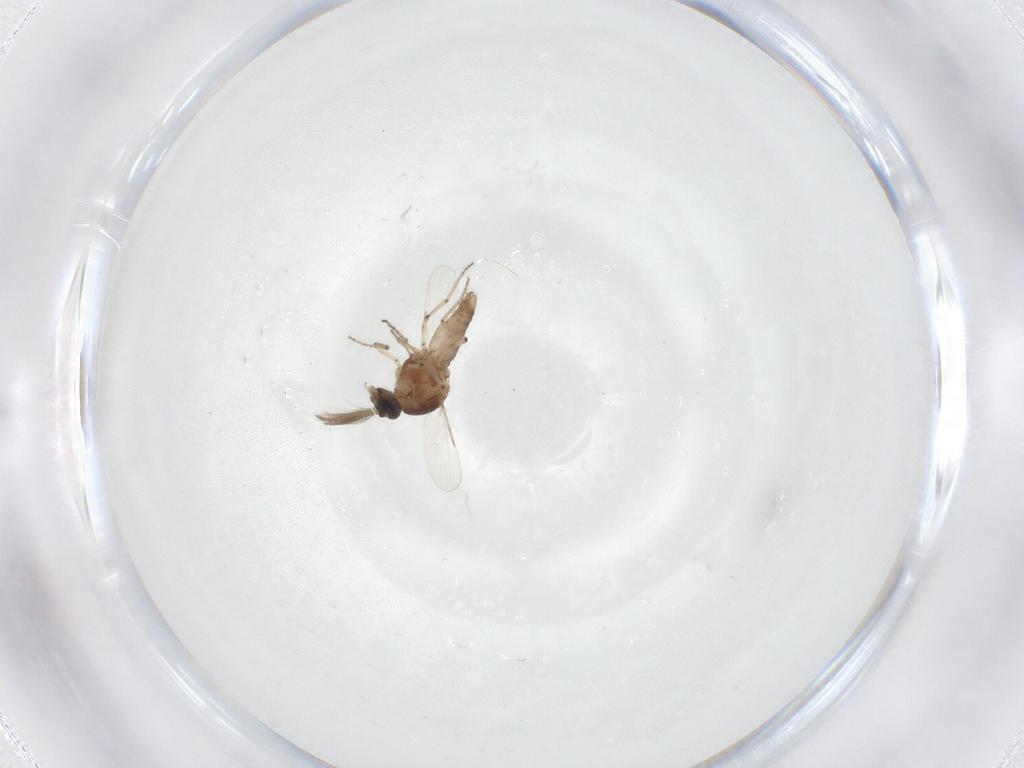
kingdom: Animalia
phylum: Arthropoda
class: Insecta
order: Diptera
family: Ceratopogonidae
